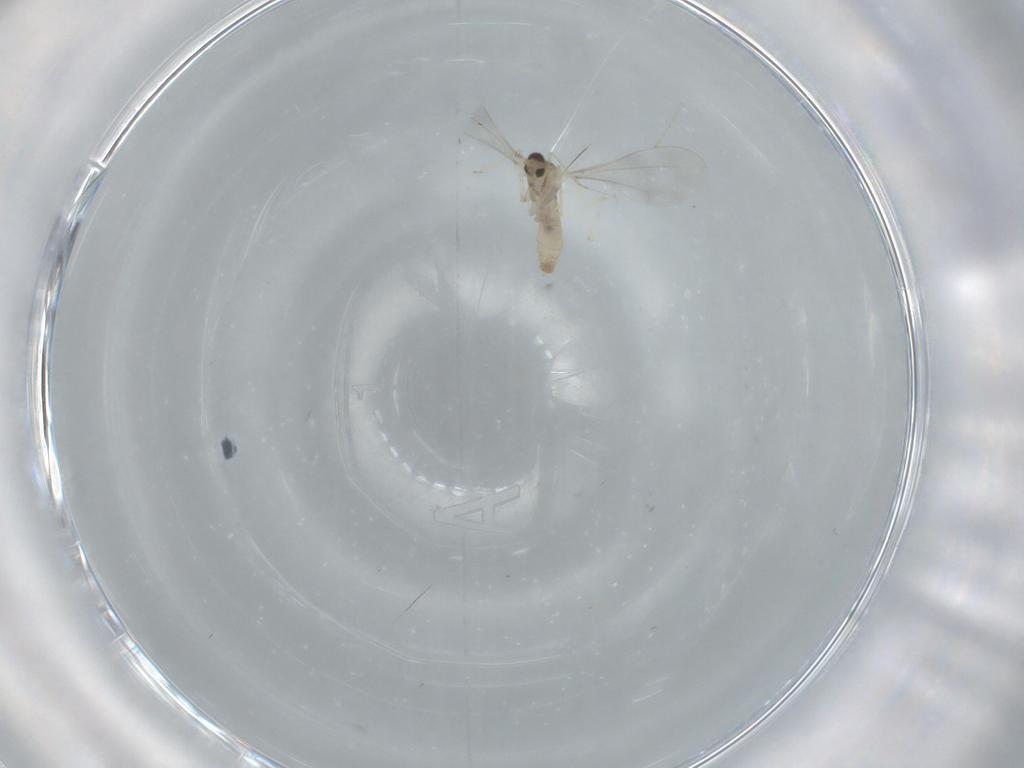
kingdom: Animalia
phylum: Arthropoda
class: Insecta
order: Diptera
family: Cecidomyiidae
